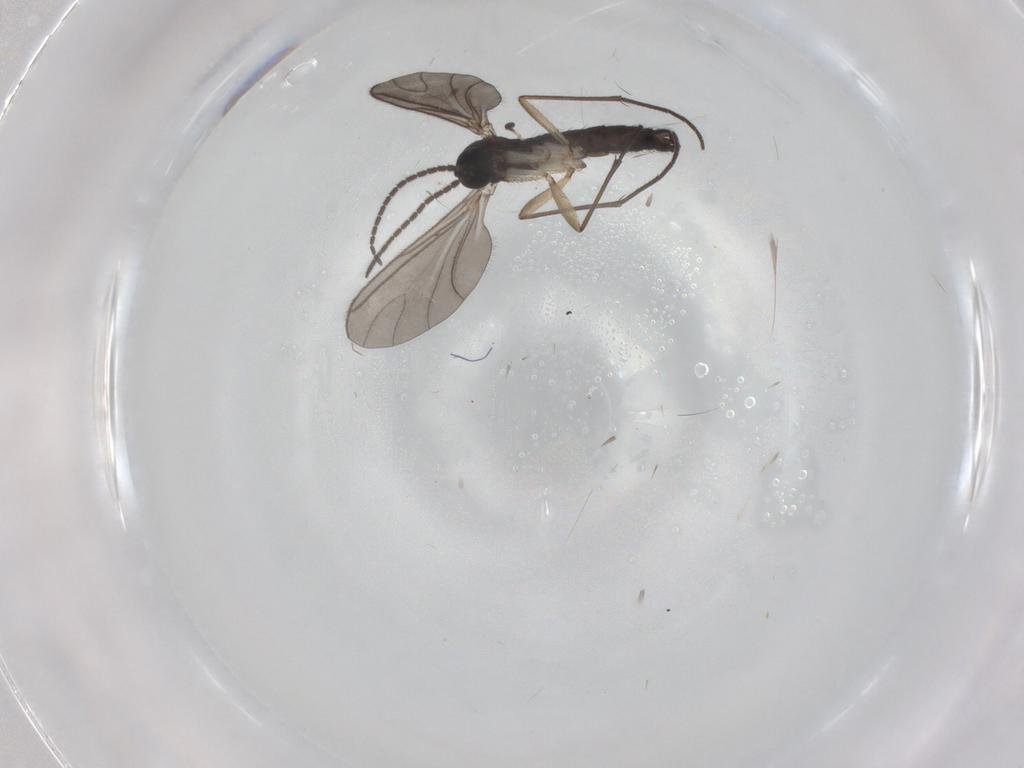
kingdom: Animalia
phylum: Arthropoda
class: Insecta
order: Diptera
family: Sciaridae
